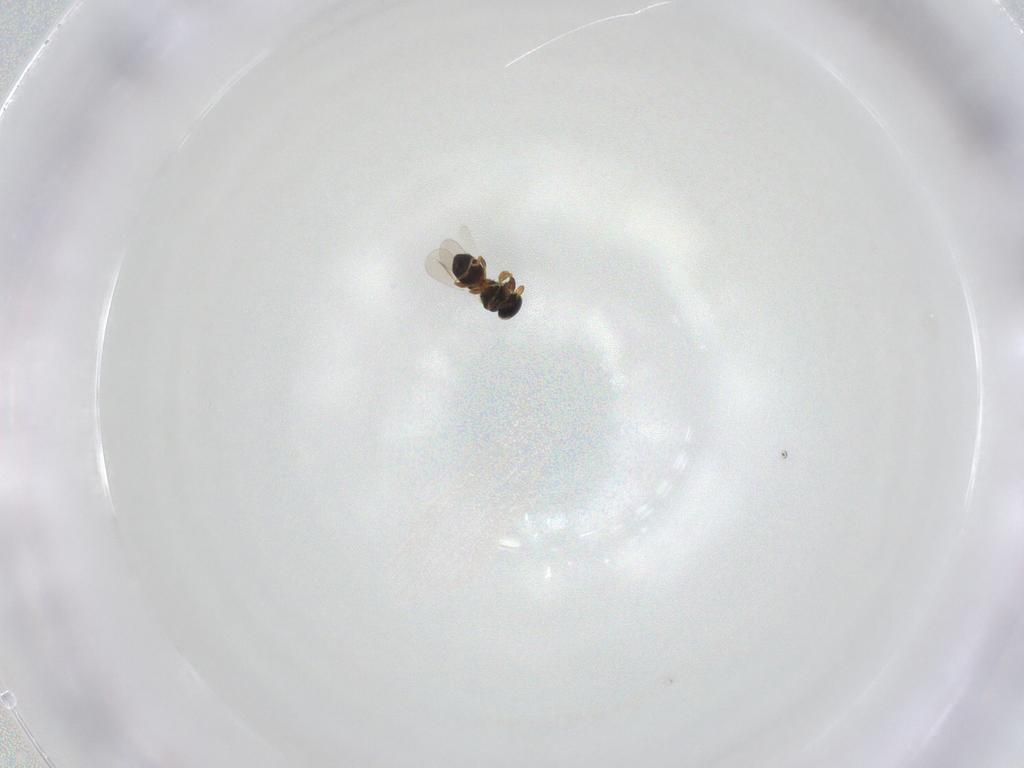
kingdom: Animalia
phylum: Arthropoda
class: Insecta
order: Hymenoptera
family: Platygastridae
